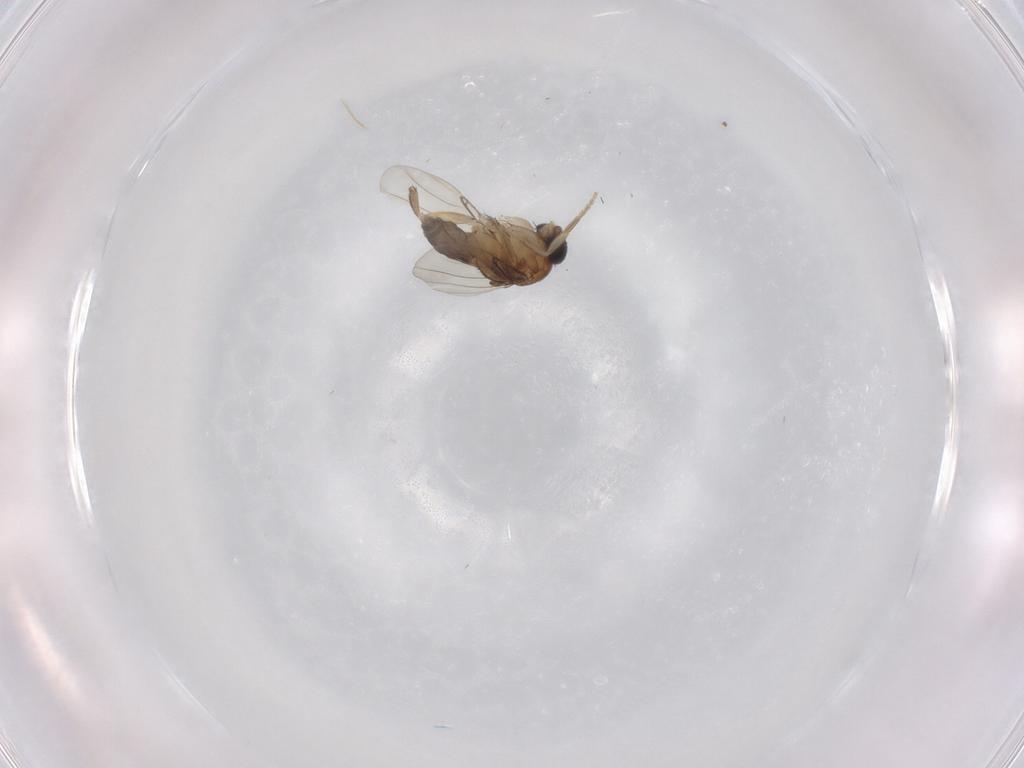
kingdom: Animalia
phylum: Arthropoda
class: Insecta
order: Diptera
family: Phoridae
